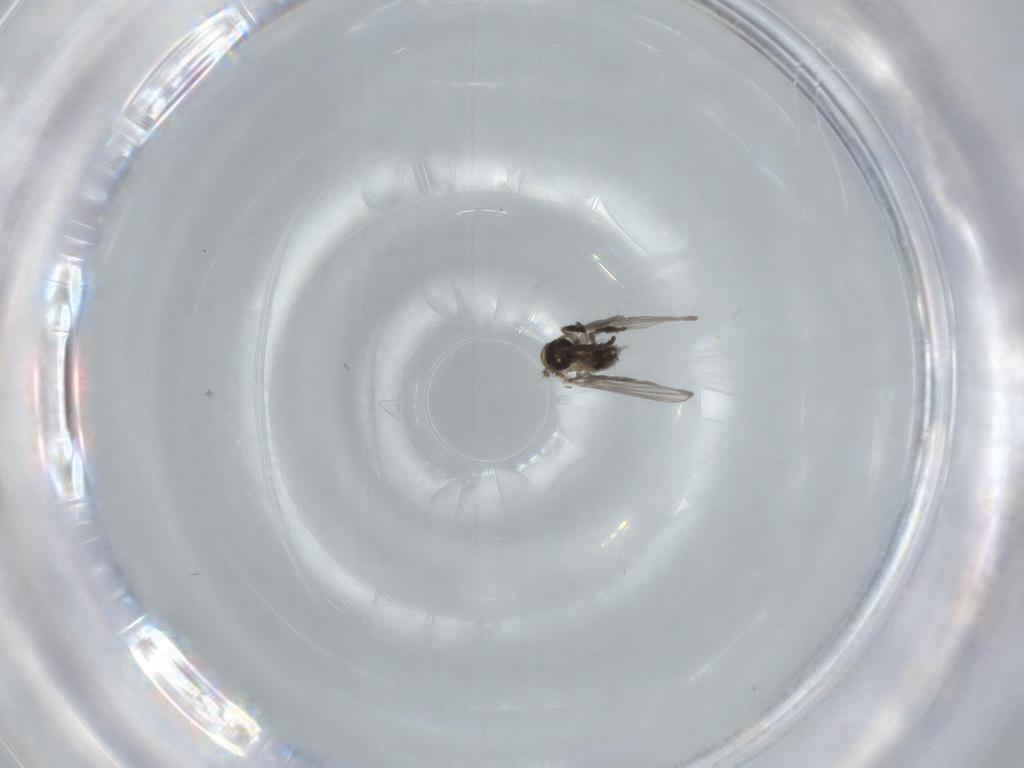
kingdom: Animalia
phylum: Arthropoda
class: Insecta
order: Diptera
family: Psychodidae
